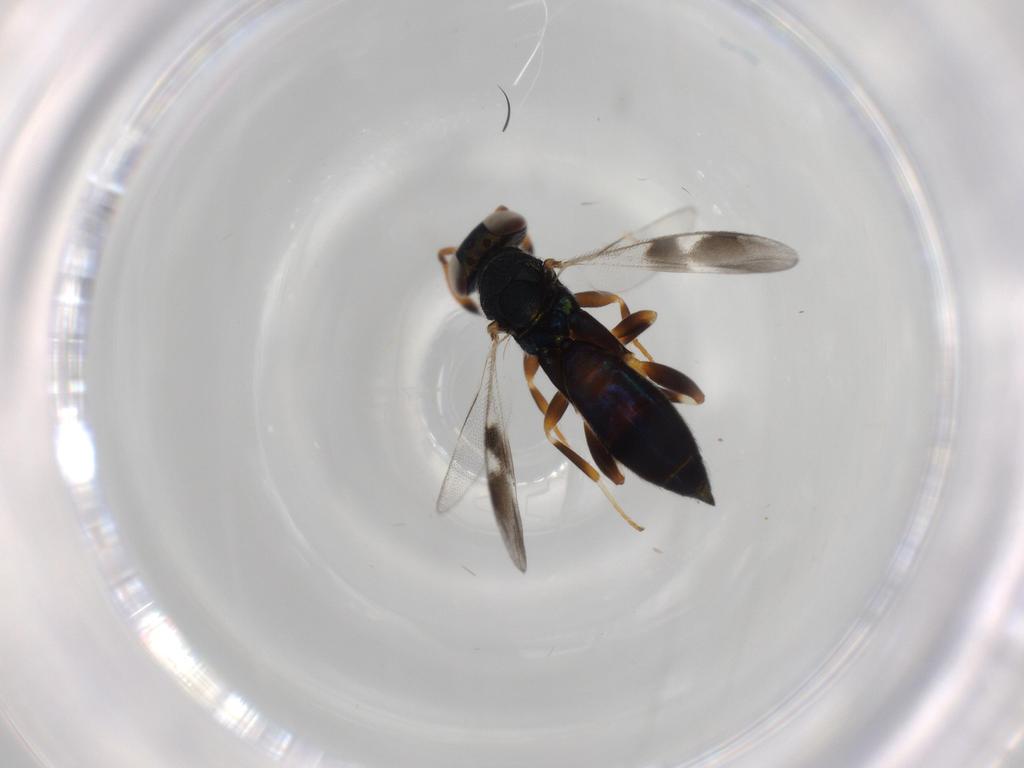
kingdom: Animalia
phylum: Arthropoda
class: Insecta
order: Hymenoptera
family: Cleonyminae
